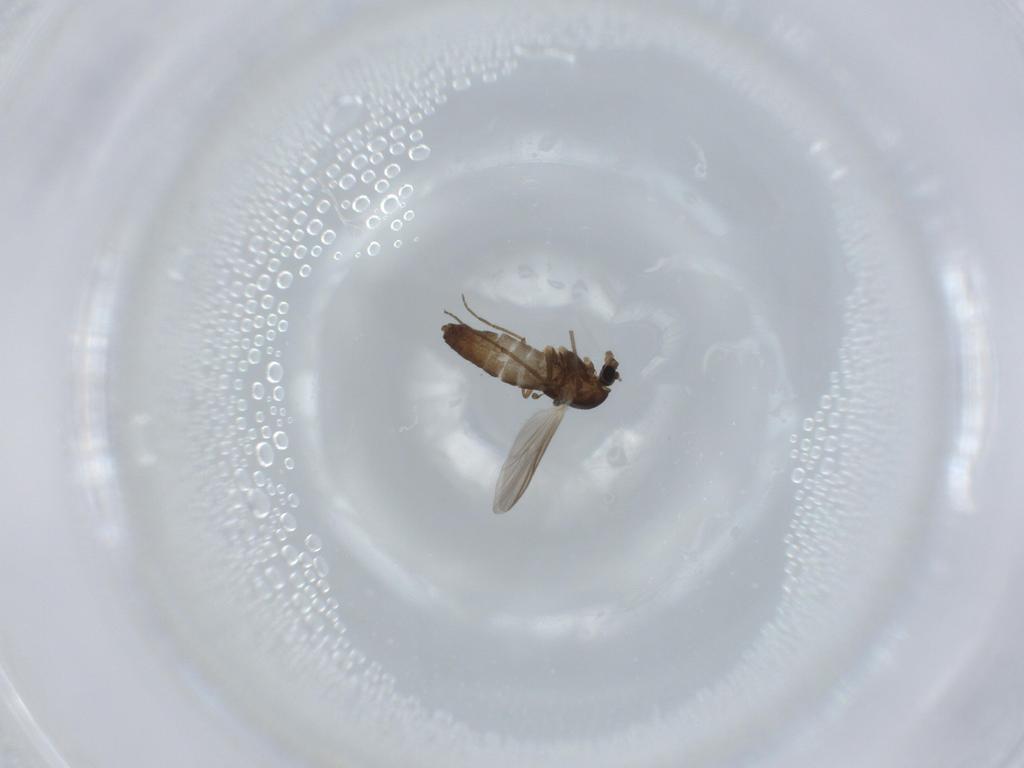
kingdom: Animalia
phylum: Arthropoda
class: Insecta
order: Diptera
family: Chironomidae
